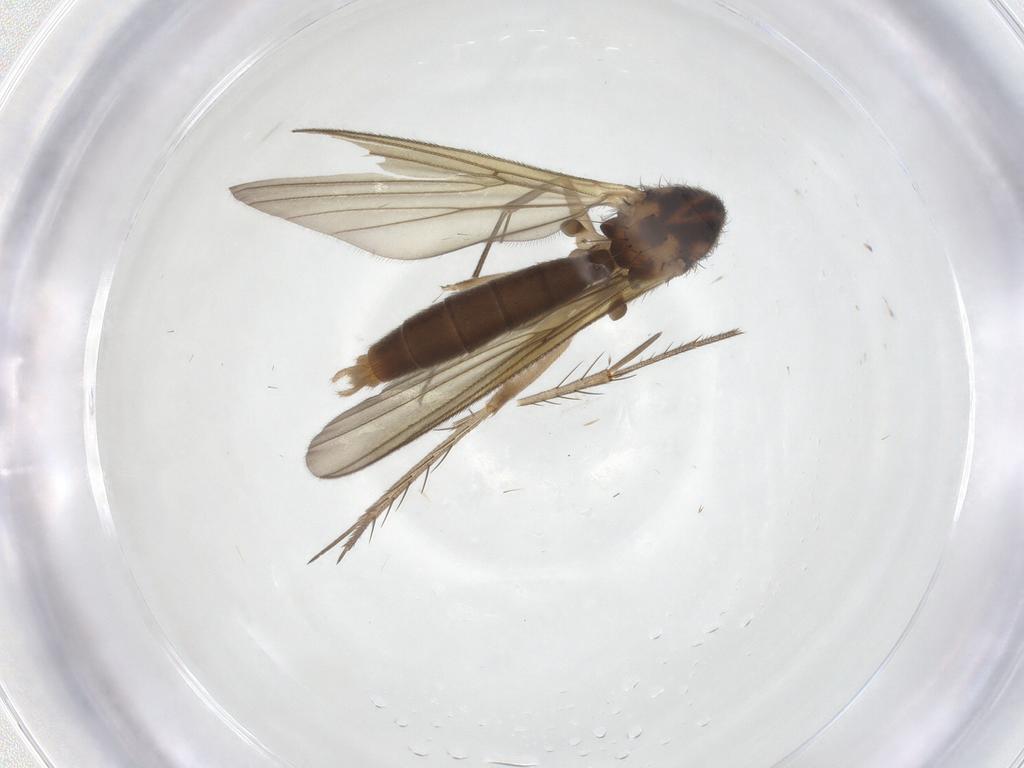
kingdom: Animalia
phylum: Arthropoda
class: Insecta
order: Diptera
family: Mycetophilidae
